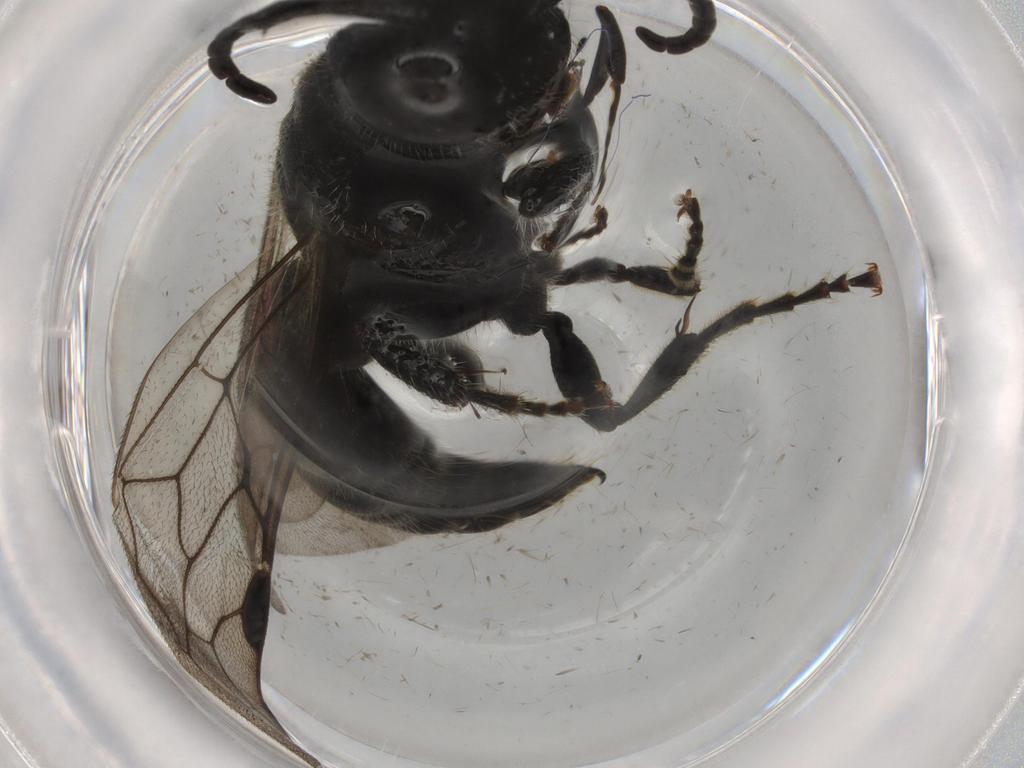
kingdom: Animalia
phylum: Arthropoda
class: Insecta
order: Hymenoptera
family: Tiphiidae
